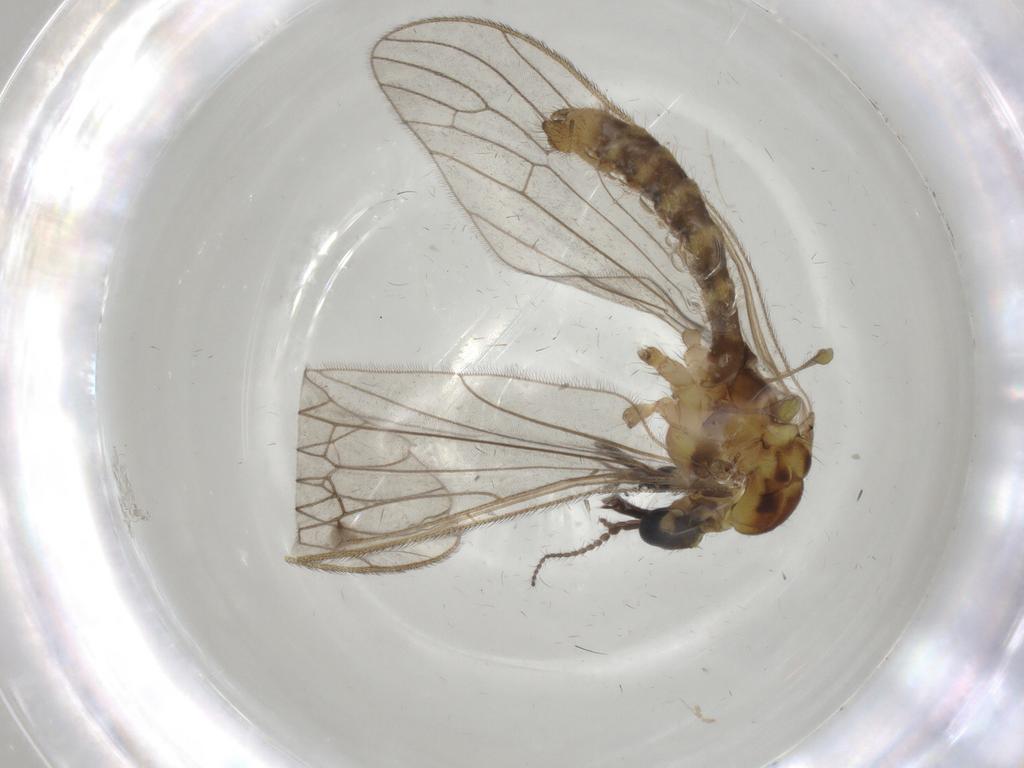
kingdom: Animalia
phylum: Arthropoda
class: Insecta
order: Diptera
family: Limoniidae
